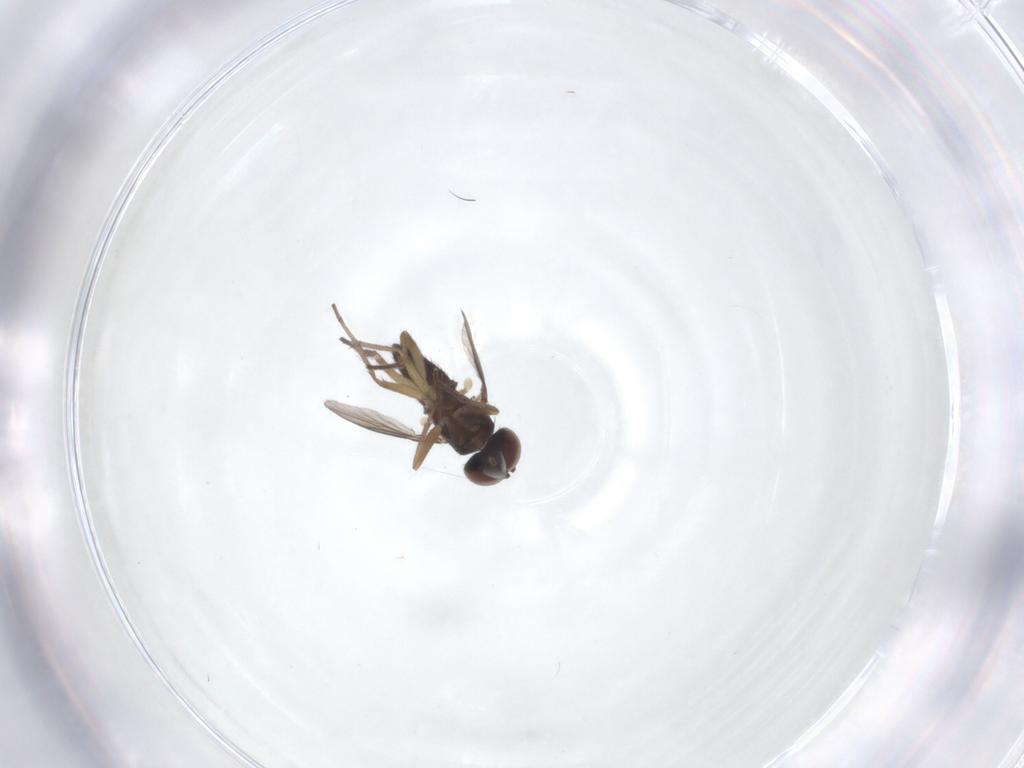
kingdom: Animalia
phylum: Arthropoda
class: Insecta
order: Diptera
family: Dolichopodidae
